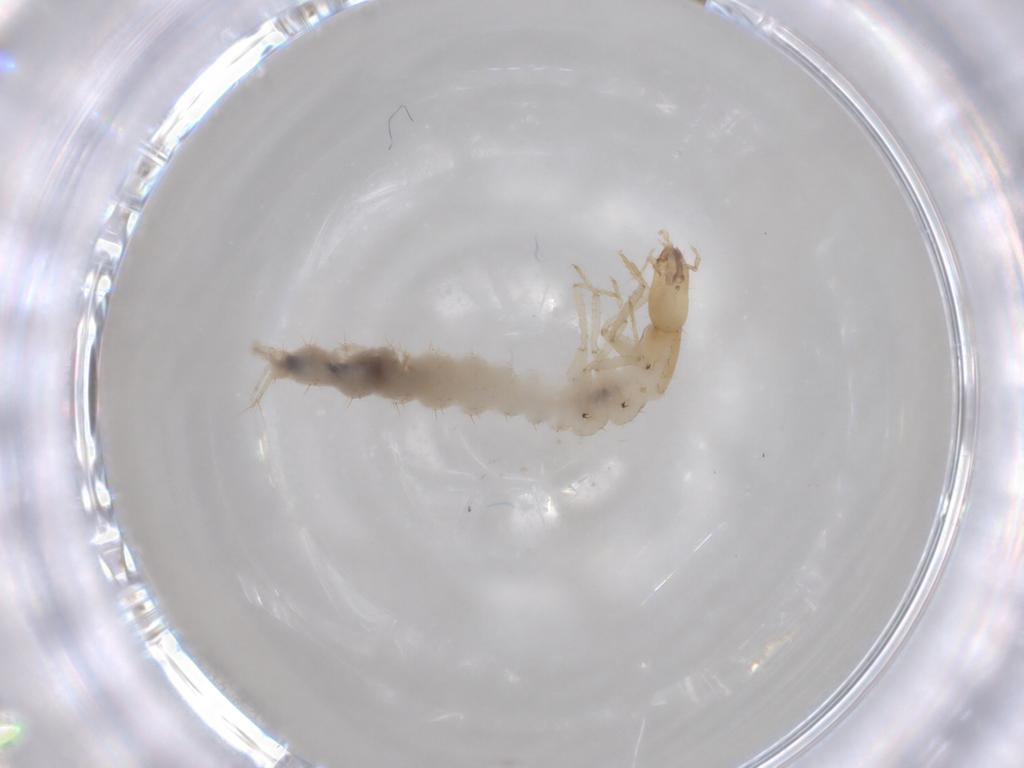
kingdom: Animalia
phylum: Arthropoda
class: Insecta
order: Coleoptera
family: Staphylinidae
